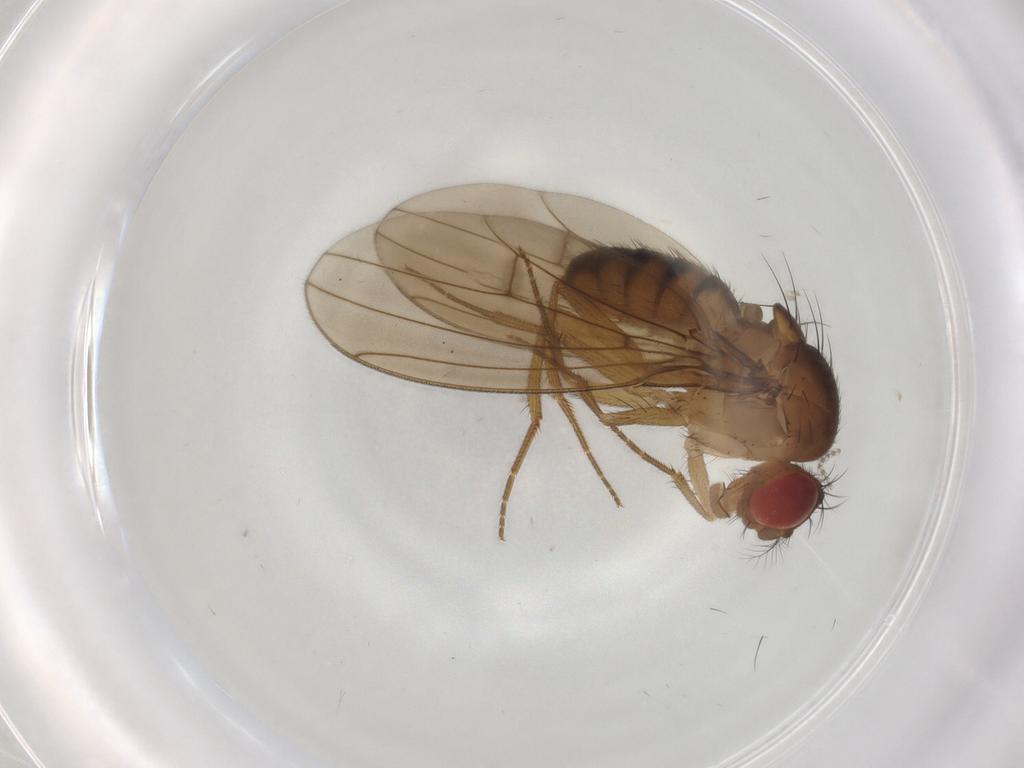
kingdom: Animalia
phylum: Arthropoda
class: Insecta
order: Diptera
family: Drosophilidae
